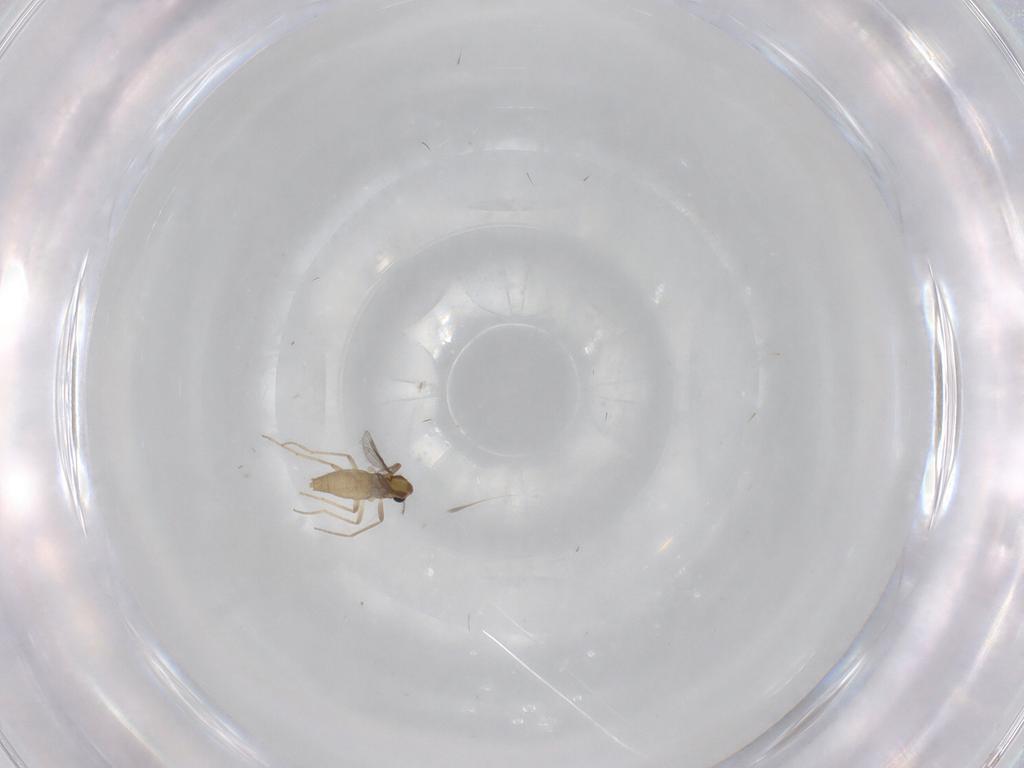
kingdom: Animalia
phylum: Arthropoda
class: Insecta
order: Diptera
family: Chironomidae
